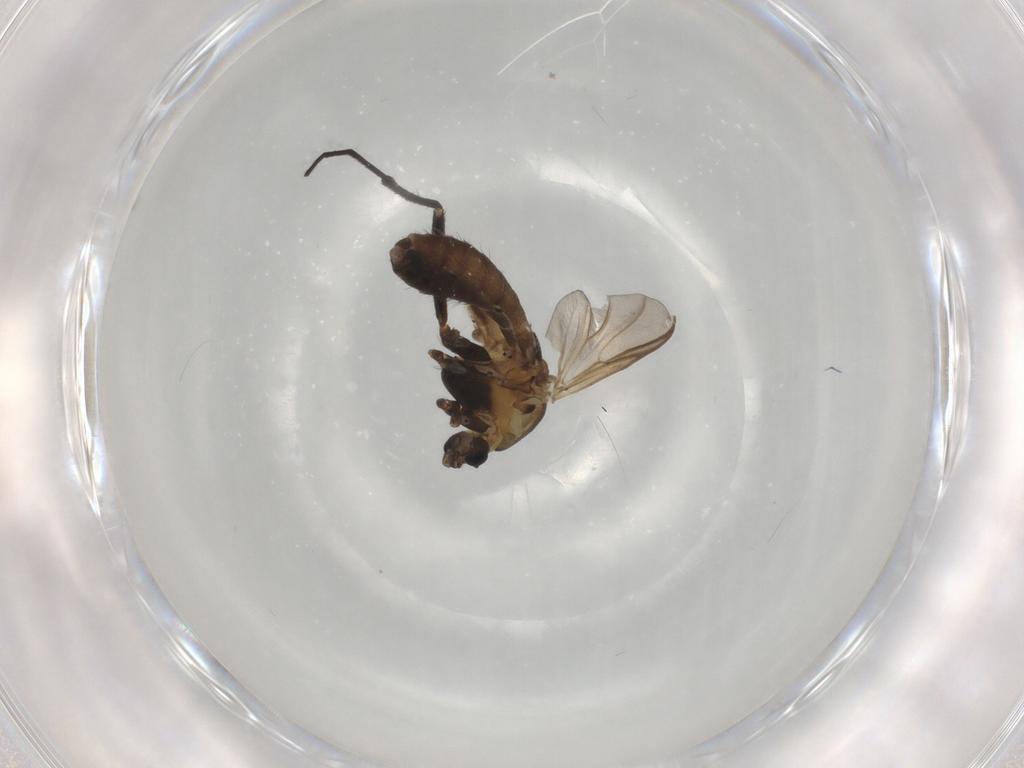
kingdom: Animalia
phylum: Arthropoda
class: Insecta
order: Diptera
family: Chironomidae
